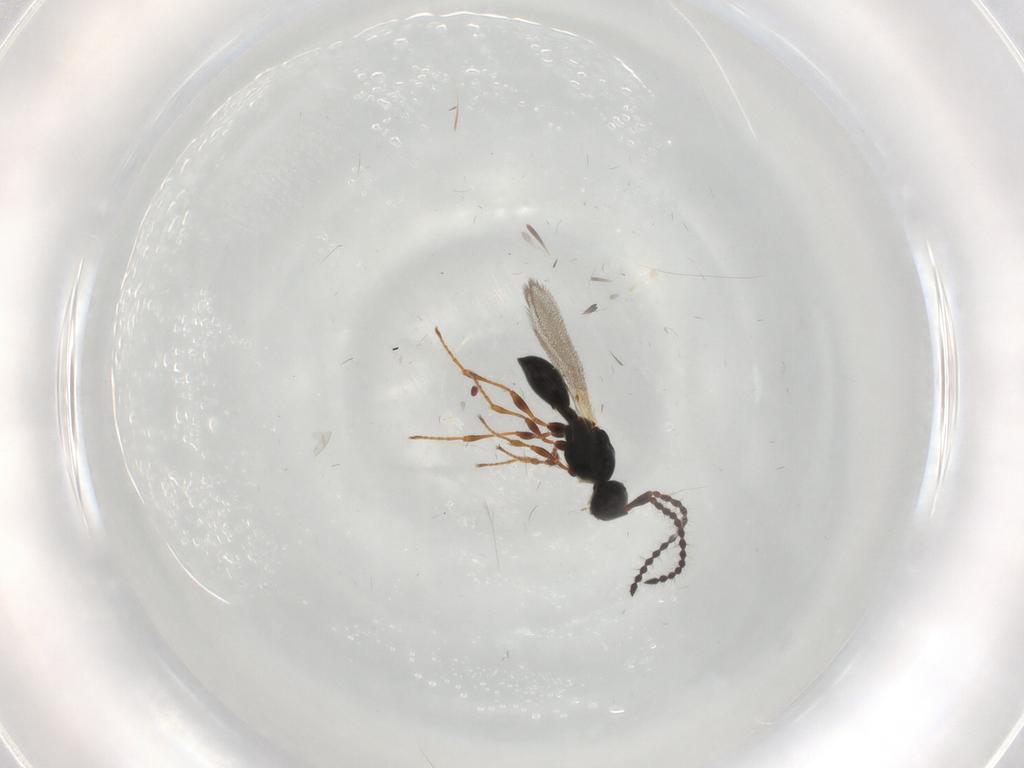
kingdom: Animalia
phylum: Arthropoda
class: Insecta
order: Hymenoptera
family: Diapriidae
